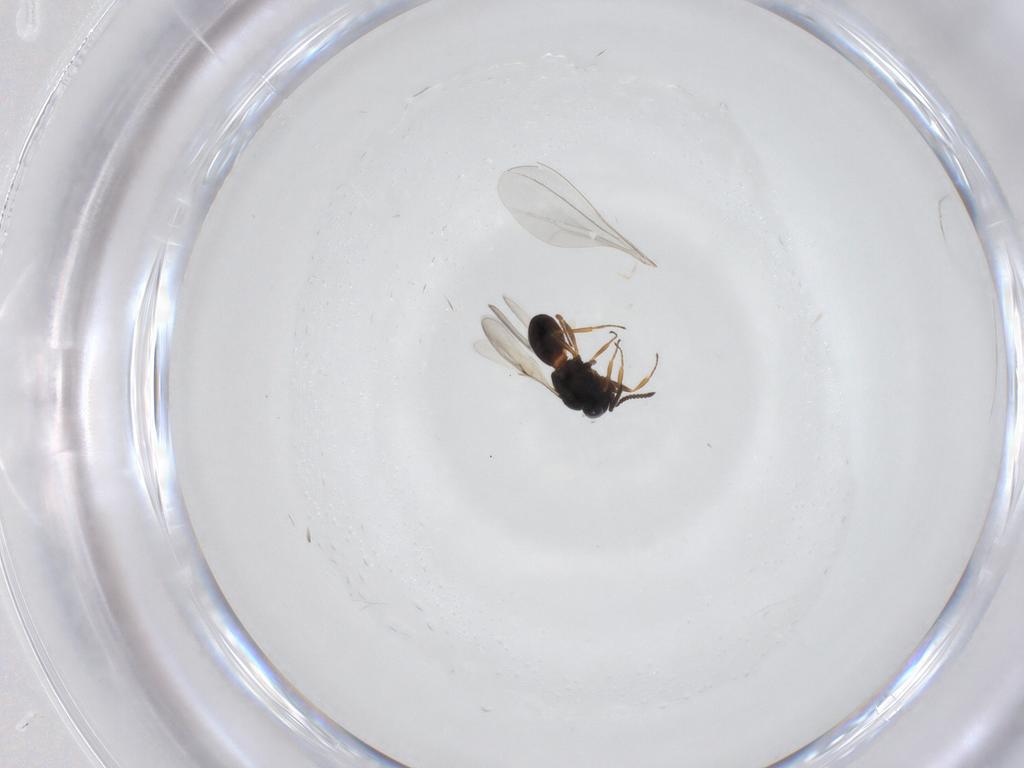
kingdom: Animalia
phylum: Arthropoda
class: Arachnida
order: Araneae
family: Pholcidae
